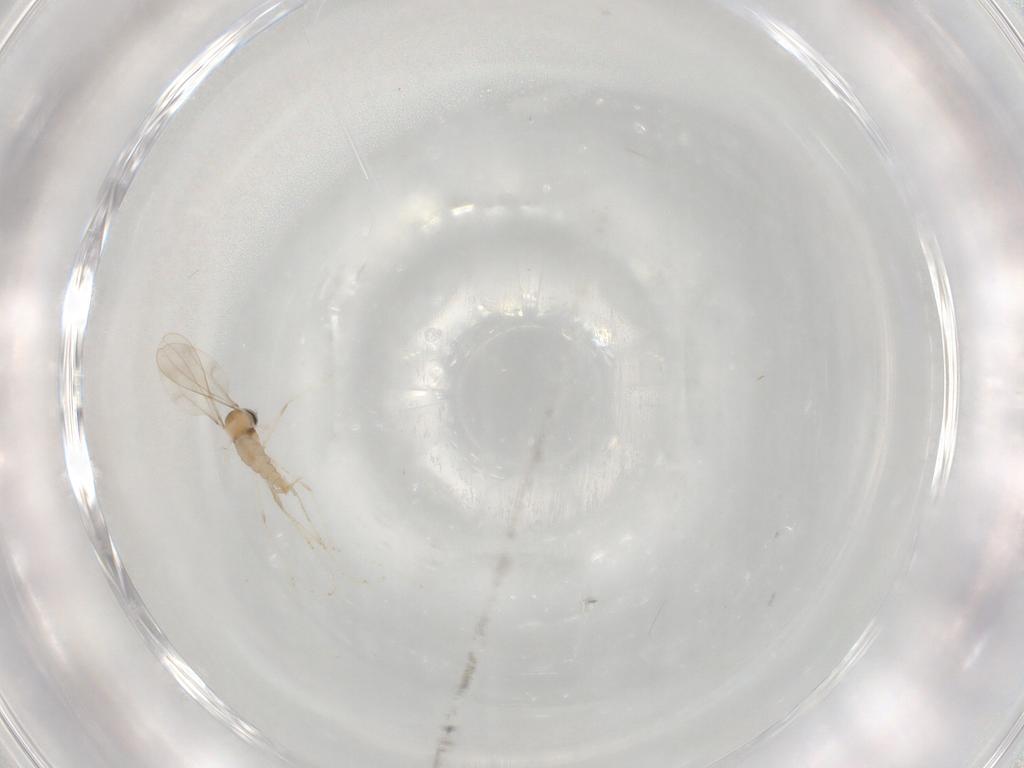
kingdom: Animalia
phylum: Arthropoda
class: Insecta
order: Diptera
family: Cecidomyiidae
